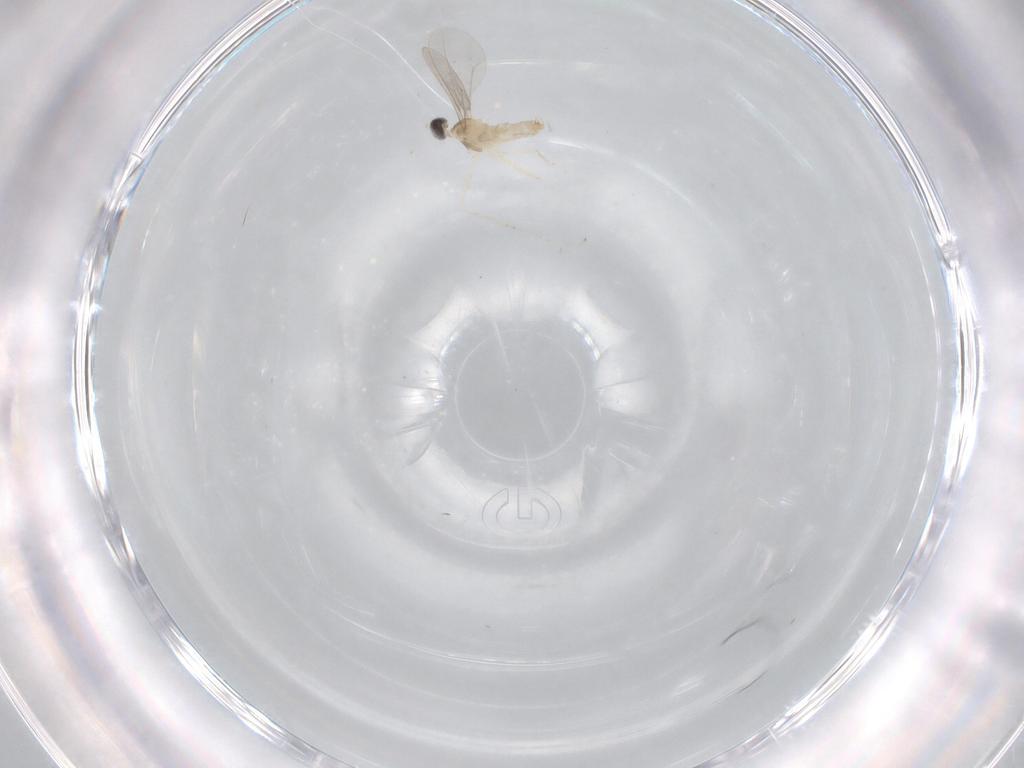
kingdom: Animalia
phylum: Arthropoda
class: Insecta
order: Diptera
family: Cecidomyiidae
